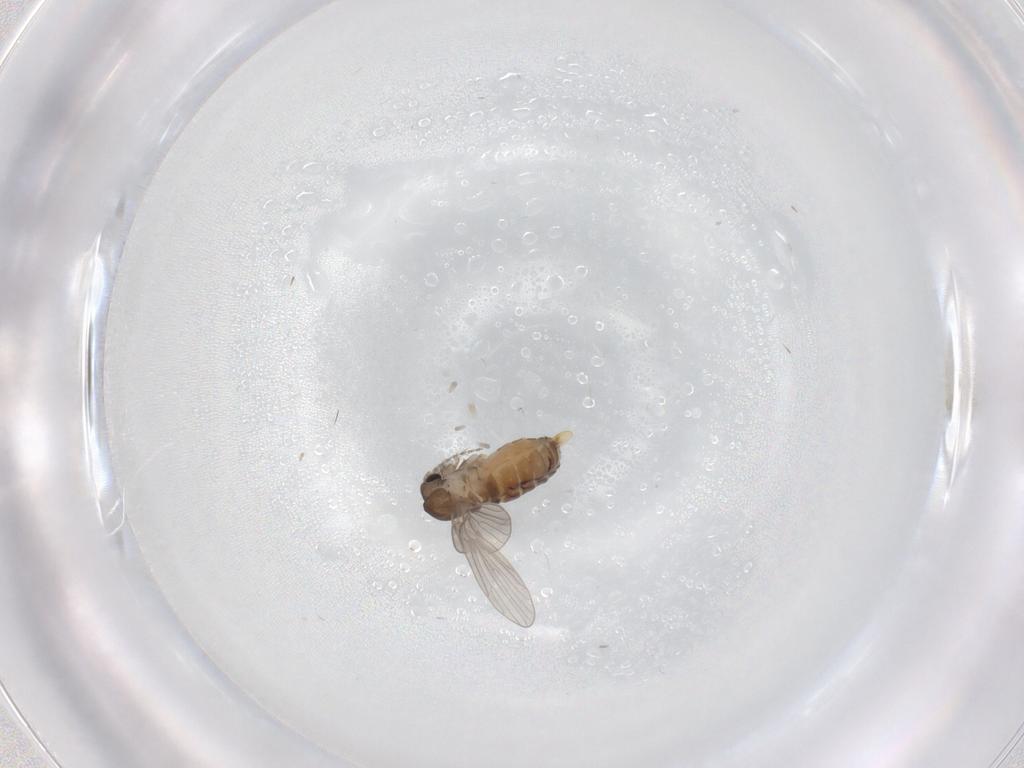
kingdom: Animalia
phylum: Arthropoda
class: Insecta
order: Diptera
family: Psychodidae
